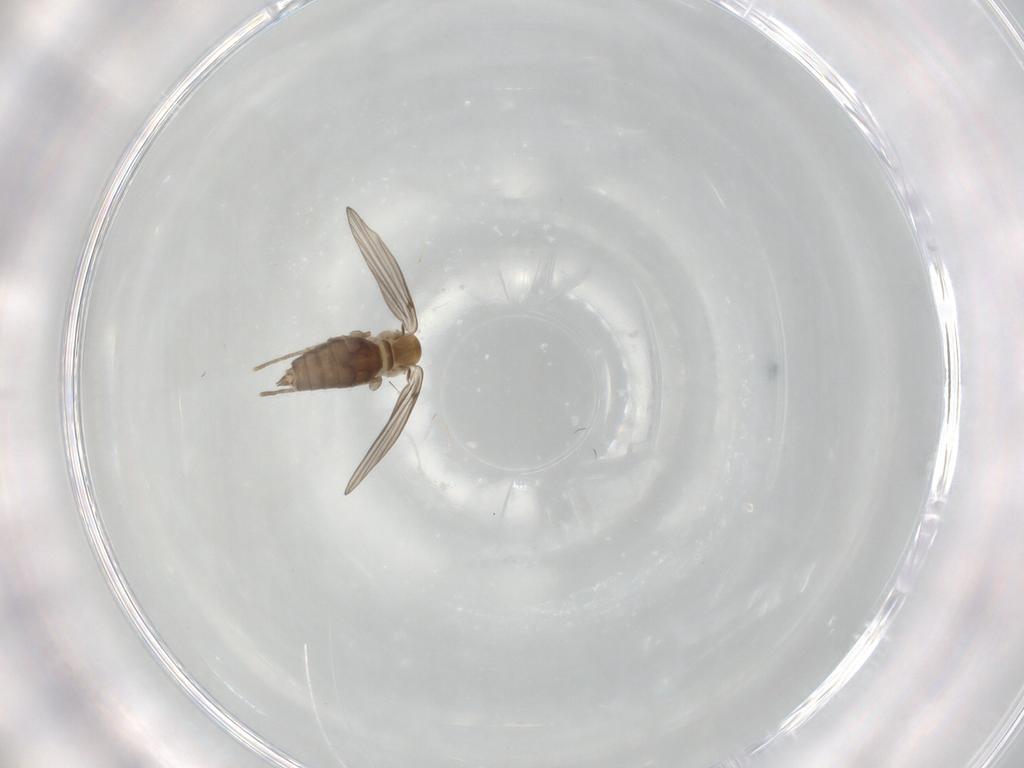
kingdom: Animalia
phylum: Arthropoda
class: Insecta
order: Diptera
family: Psychodidae
